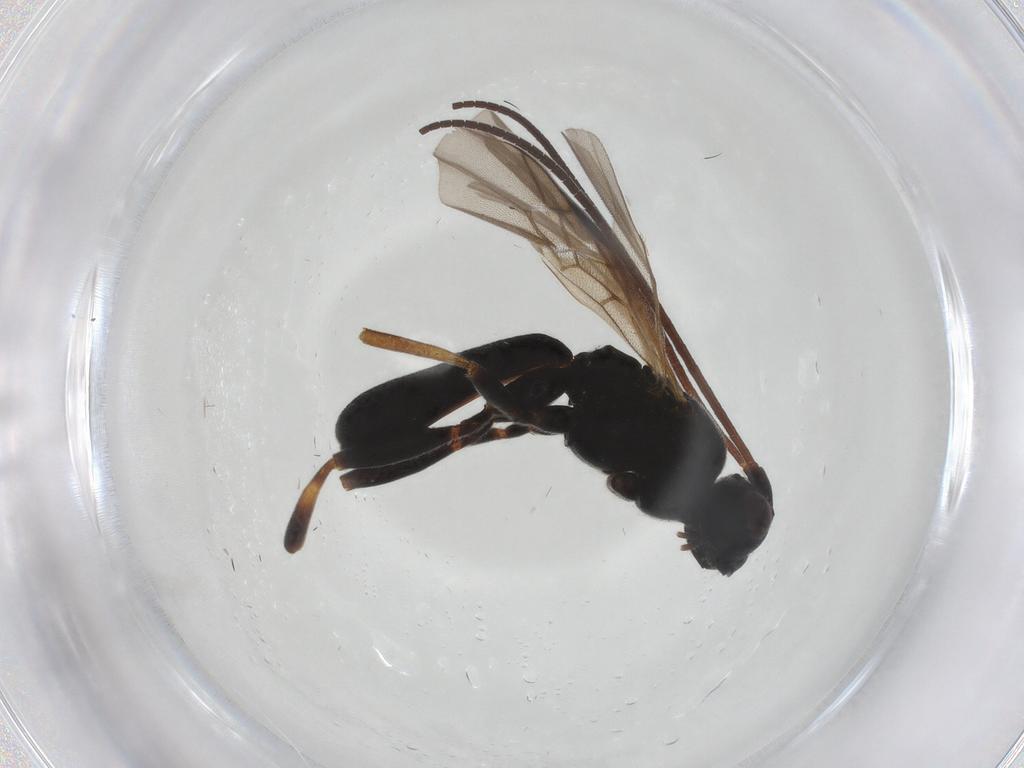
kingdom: Animalia
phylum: Arthropoda
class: Insecta
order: Hymenoptera
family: Braconidae
